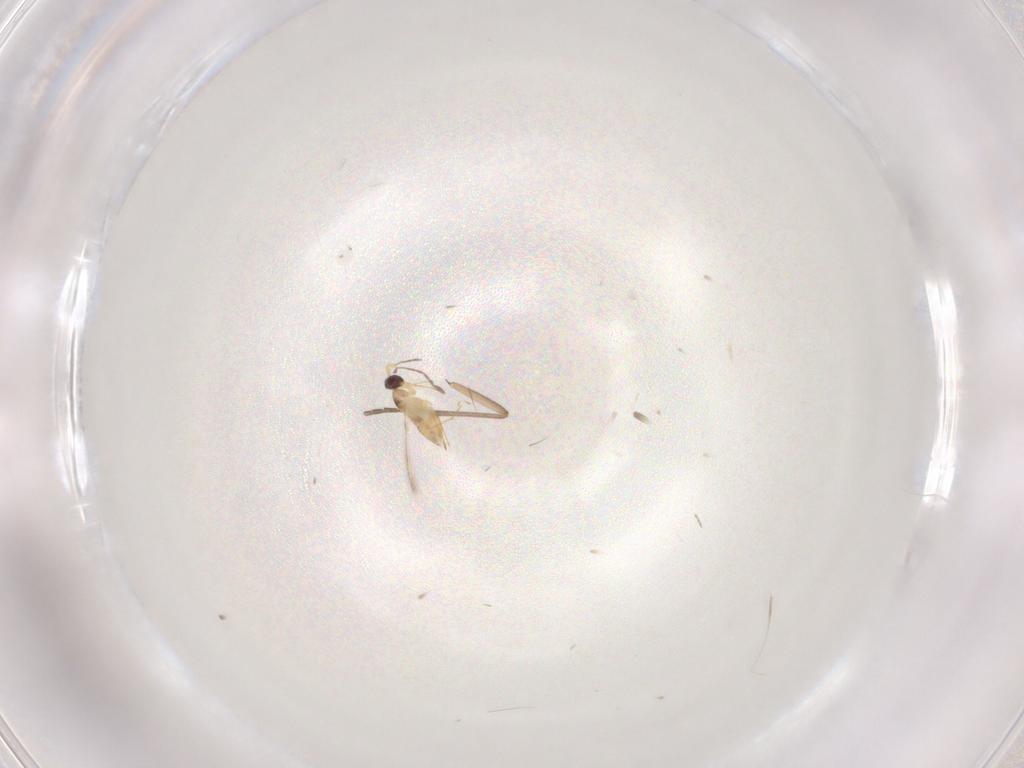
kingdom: Animalia
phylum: Arthropoda
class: Insecta
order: Hymenoptera
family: Mymaridae
